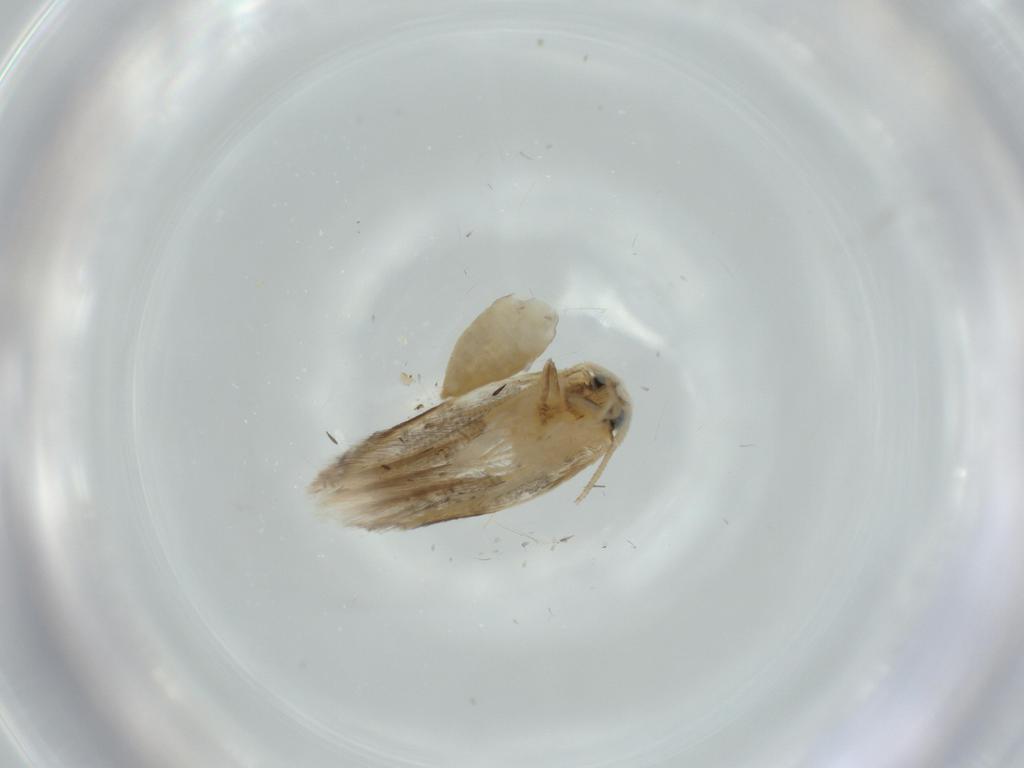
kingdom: Animalia
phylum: Arthropoda
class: Insecta
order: Lepidoptera
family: Opostegidae
